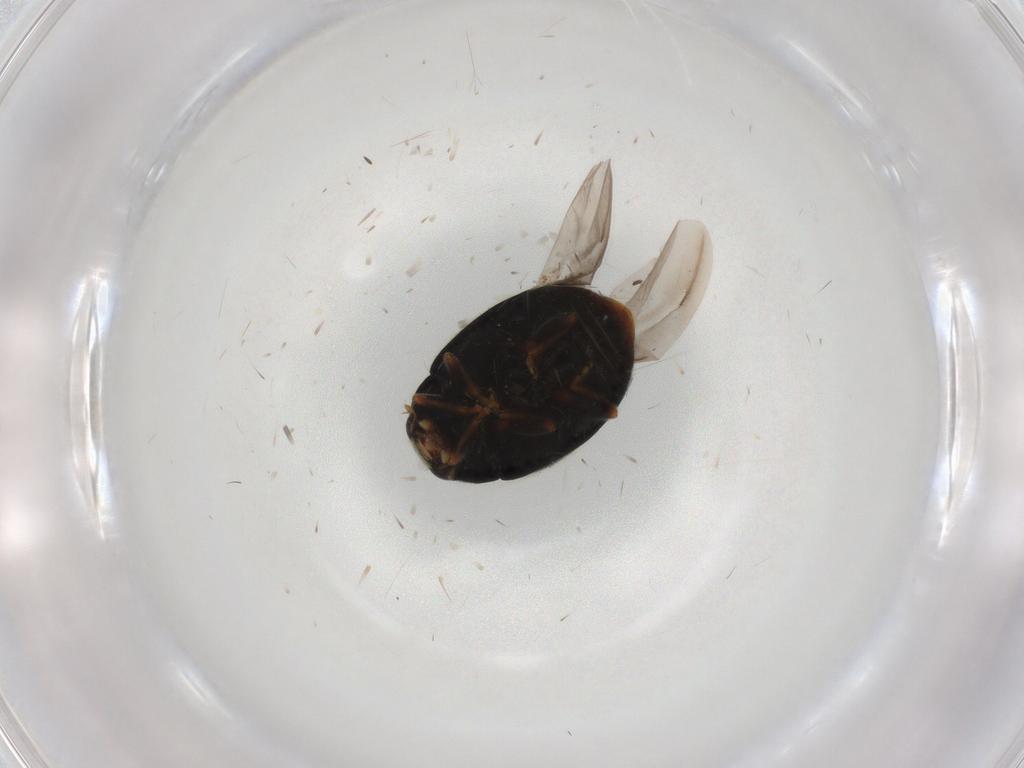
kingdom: Animalia
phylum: Arthropoda
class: Insecta
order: Coleoptera
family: Coccinellidae
